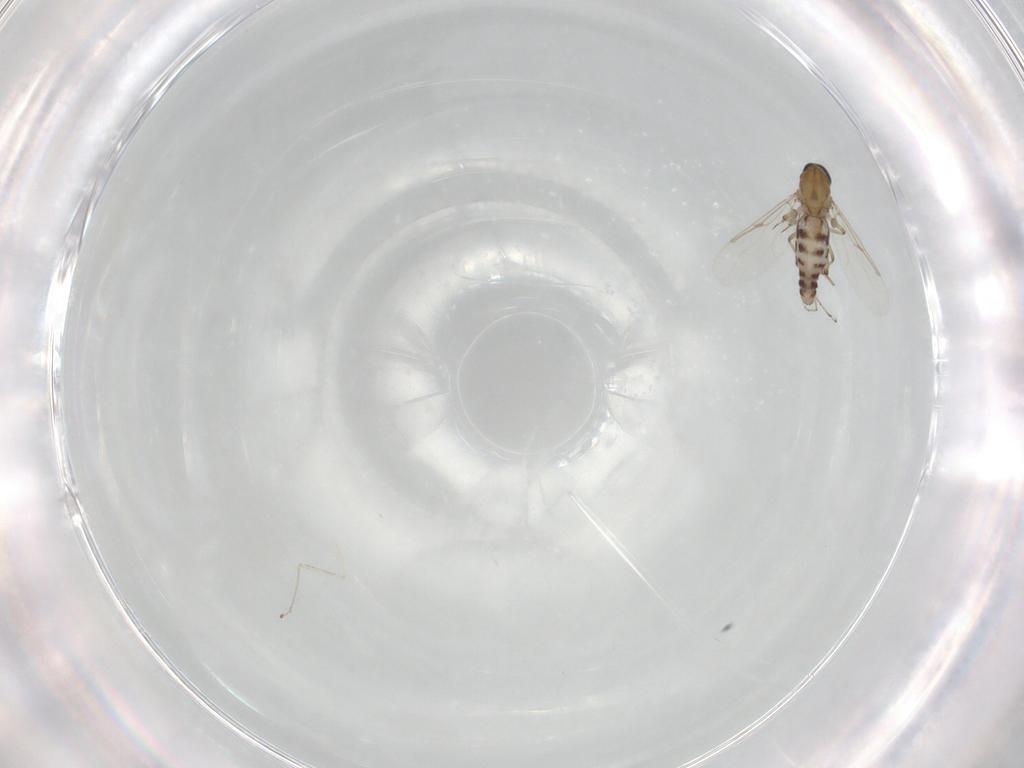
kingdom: Animalia
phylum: Arthropoda
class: Insecta
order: Diptera
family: Ceratopogonidae
